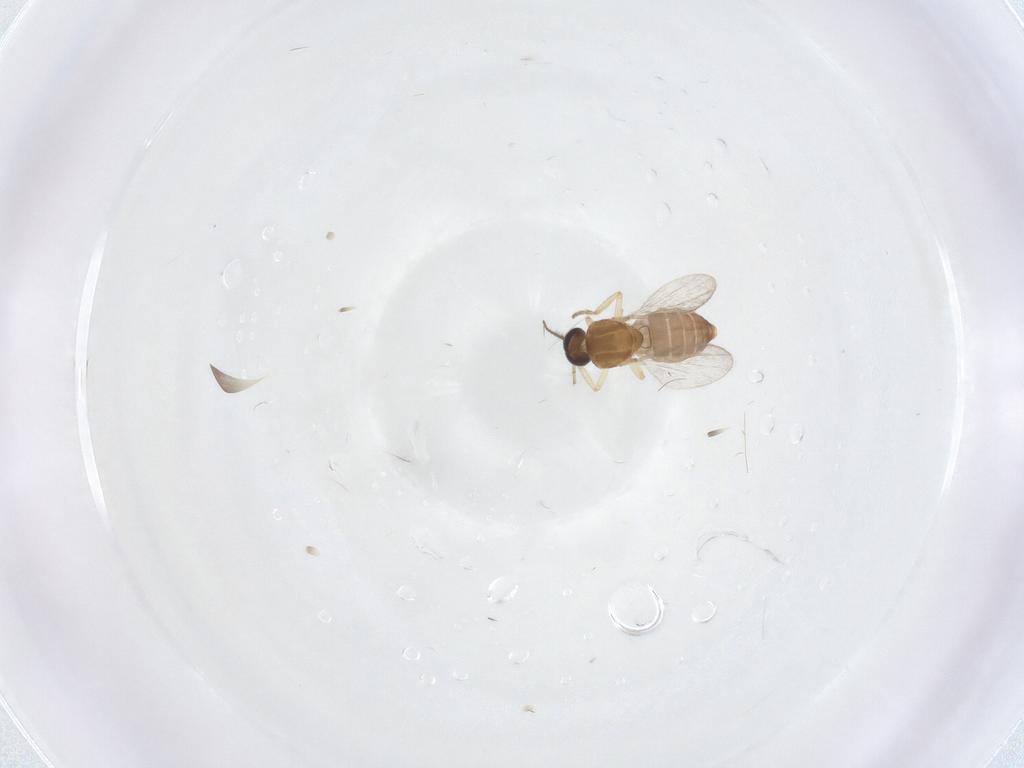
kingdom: Animalia
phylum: Arthropoda
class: Insecta
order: Diptera
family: Ceratopogonidae
